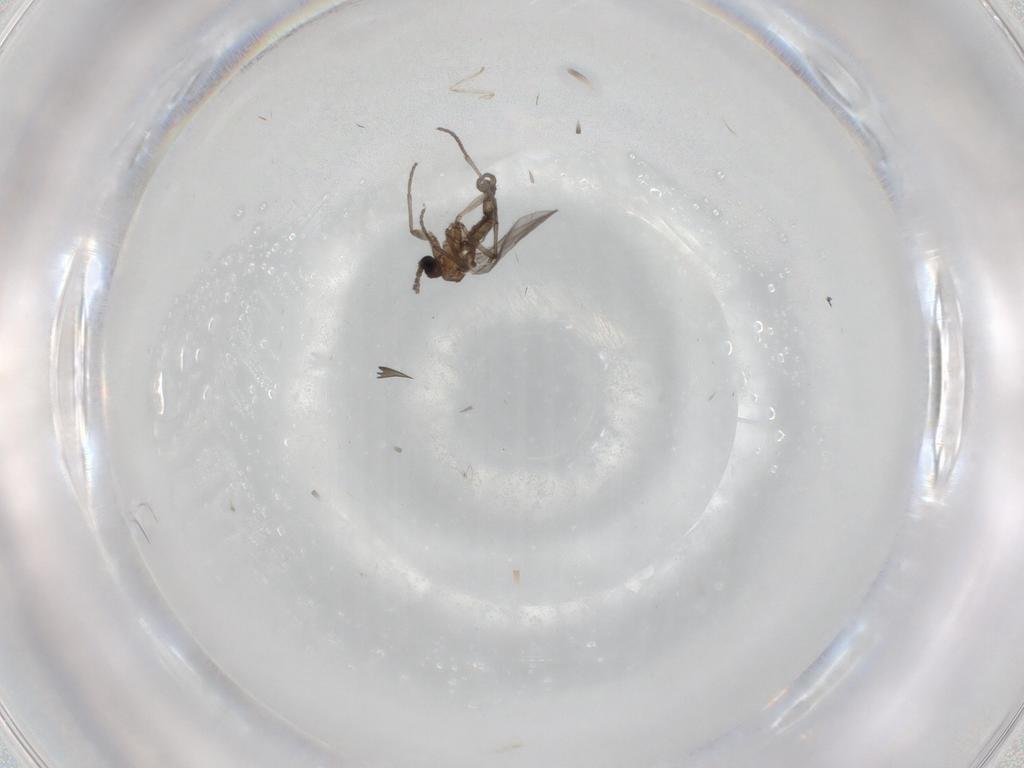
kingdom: Animalia
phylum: Arthropoda
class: Insecta
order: Diptera
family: Sciaridae
